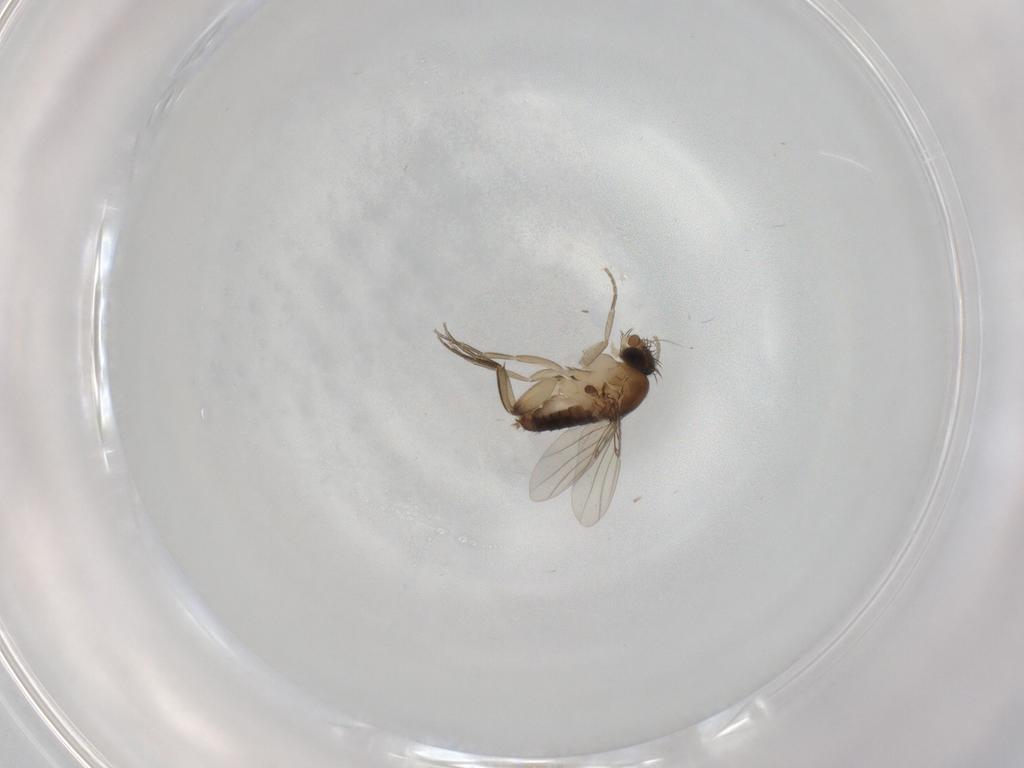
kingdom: Animalia
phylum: Arthropoda
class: Insecta
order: Diptera
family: Phoridae
